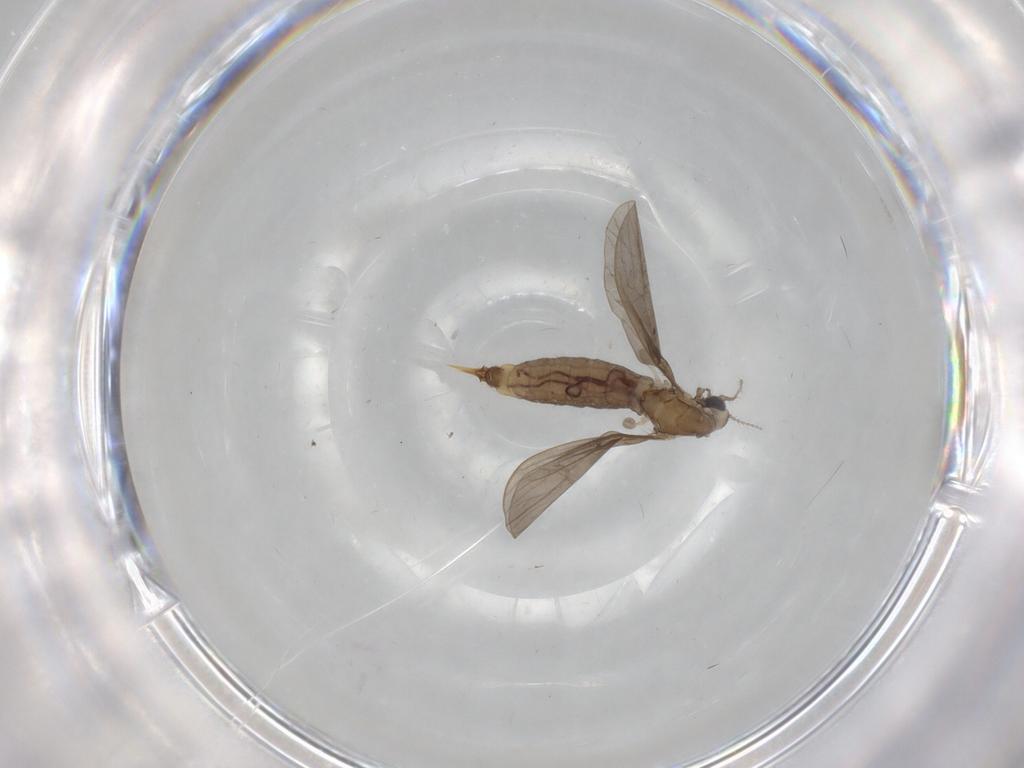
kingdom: Animalia
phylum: Arthropoda
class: Insecta
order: Diptera
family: Limoniidae
